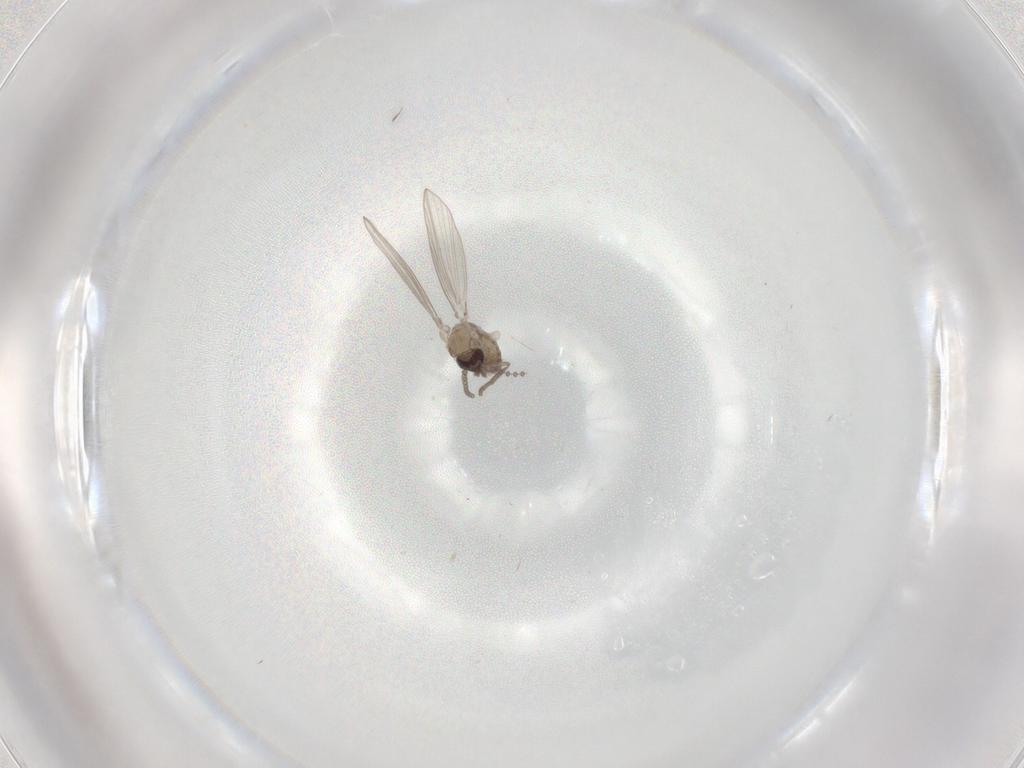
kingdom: Animalia
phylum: Arthropoda
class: Insecta
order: Diptera
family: Psychodidae
